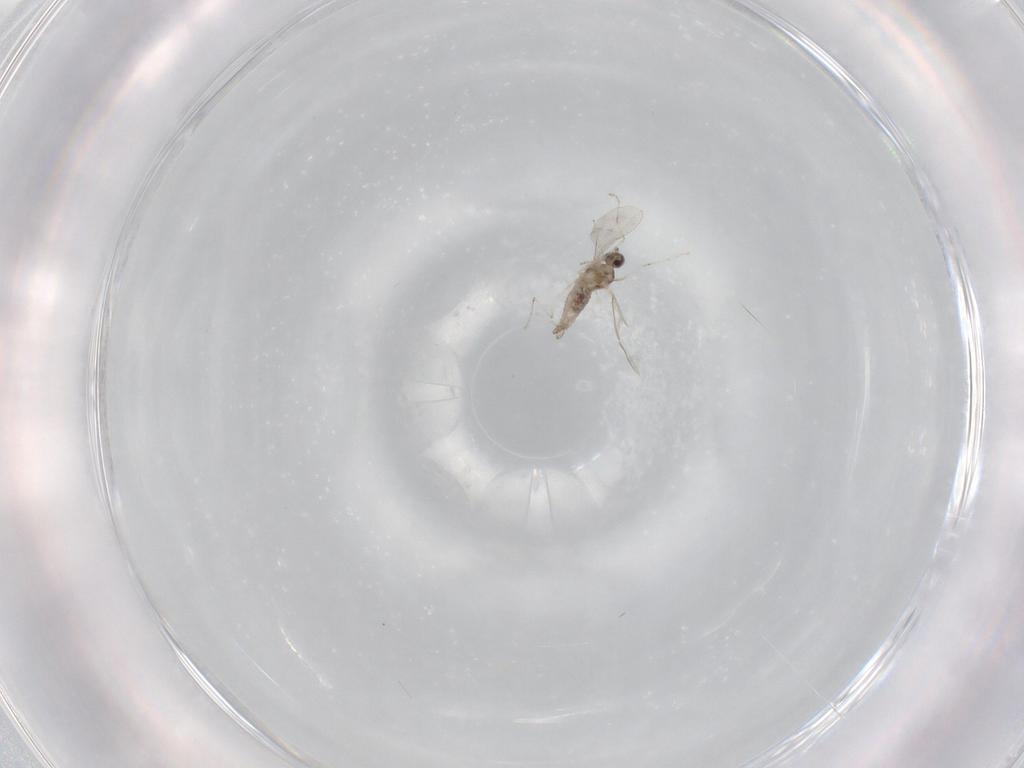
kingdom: Animalia
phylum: Arthropoda
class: Insecta
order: Diptera
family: Cecidomyiidae
